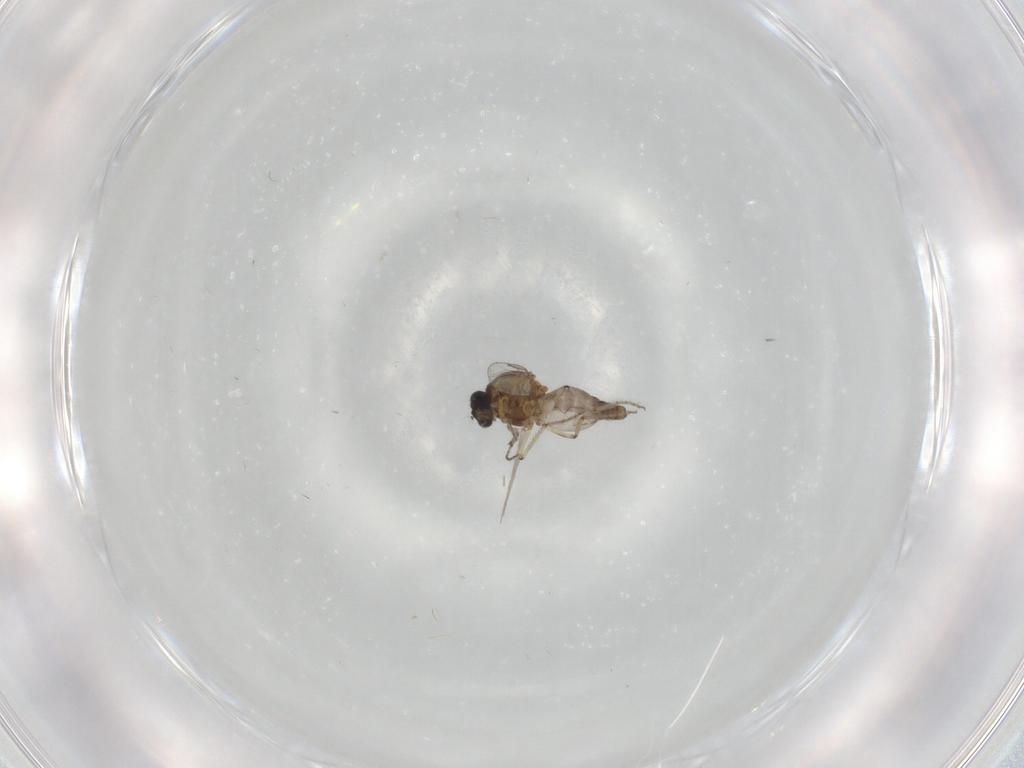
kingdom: Animalia
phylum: Arthropoda
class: Insecta
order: Diptera
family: Ceratopogonidae
